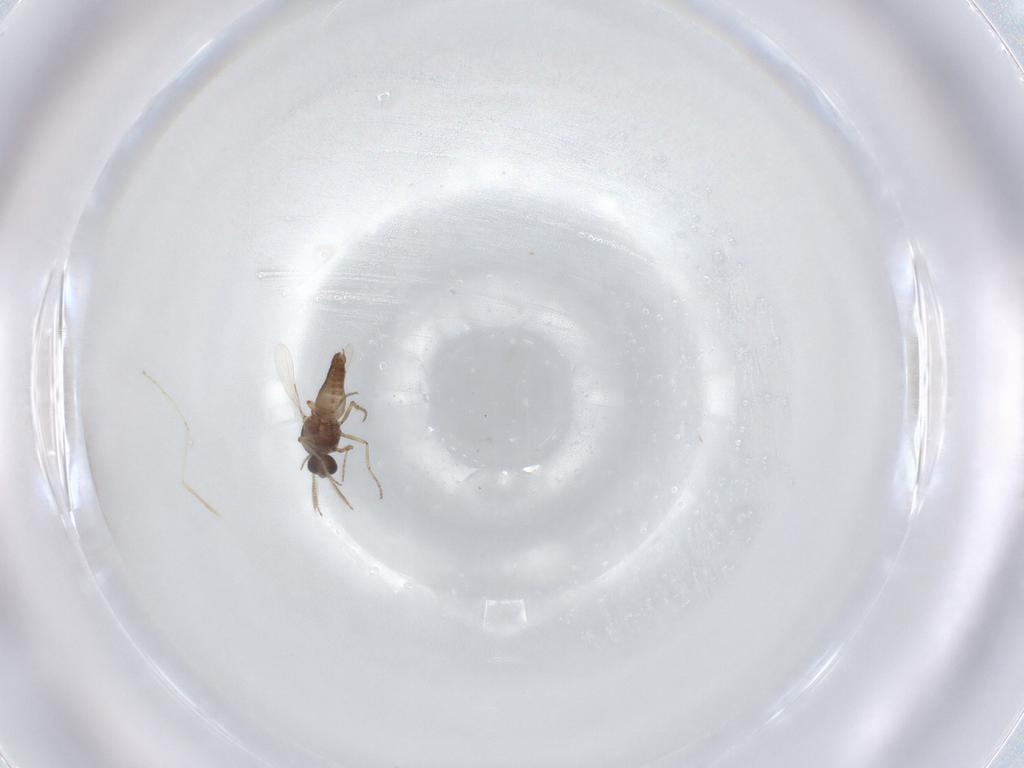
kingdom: Animalia
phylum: Arthropoda
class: Insecta
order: Diptera
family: Ceratopogonidae
